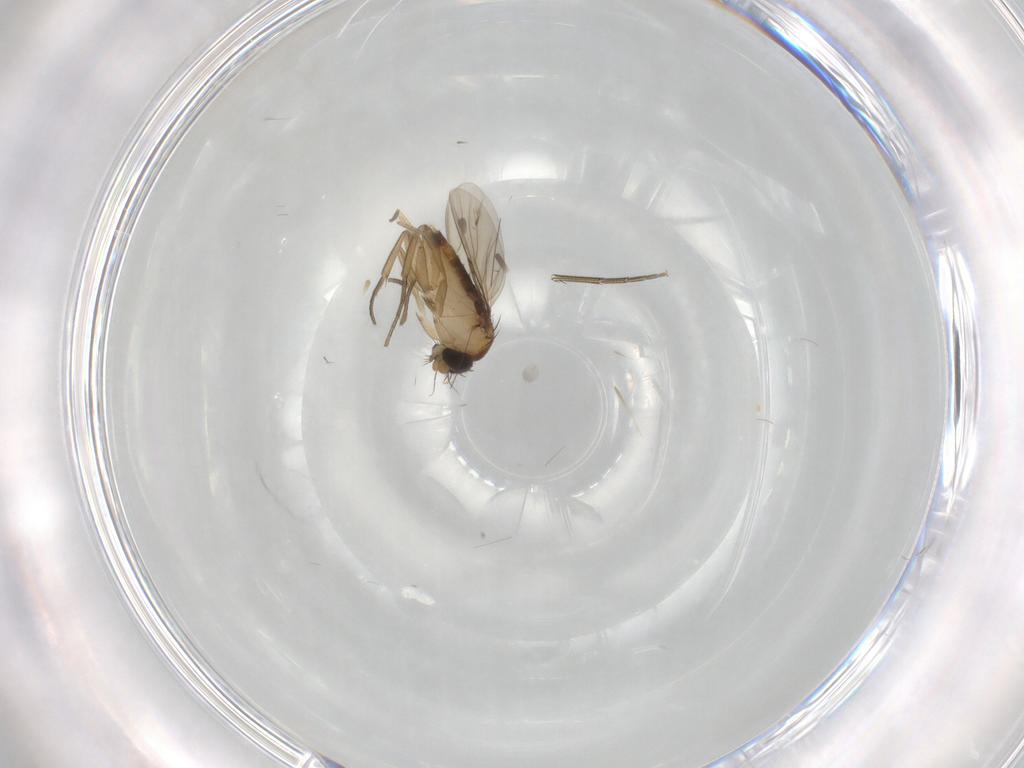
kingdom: Animalia
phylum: Arthropoda
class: Insecta
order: Diptera
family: Phoridae
